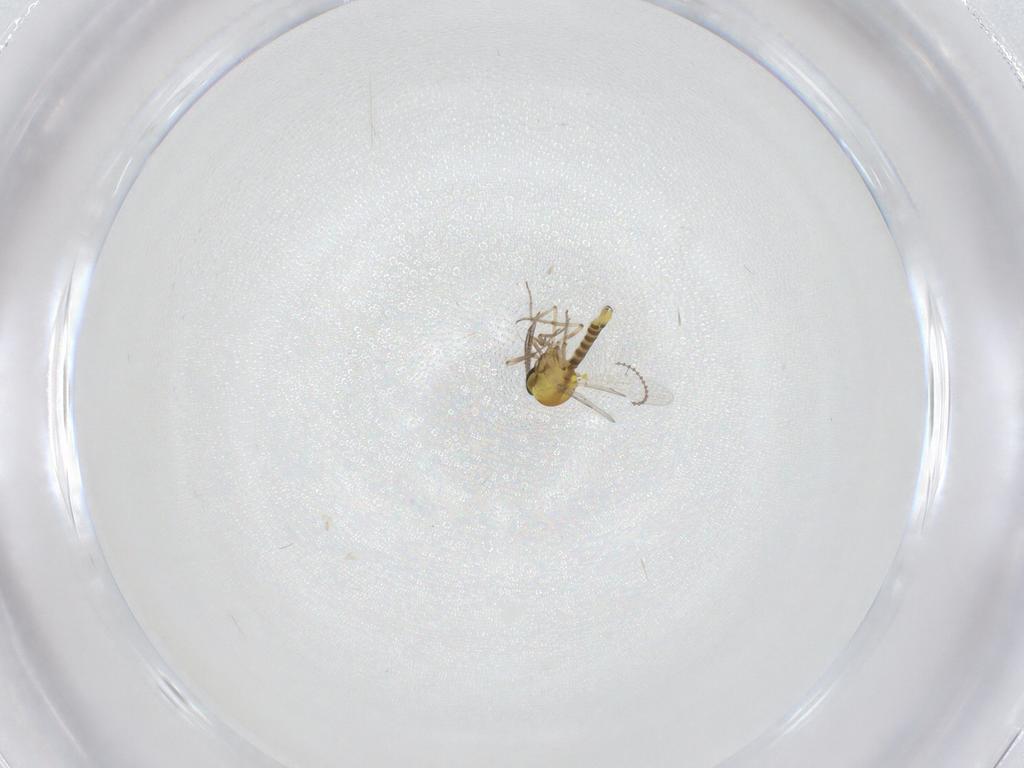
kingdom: Animalia
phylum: Arthropoda
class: Insecta
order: Diptera
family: Ceratopogonidae
